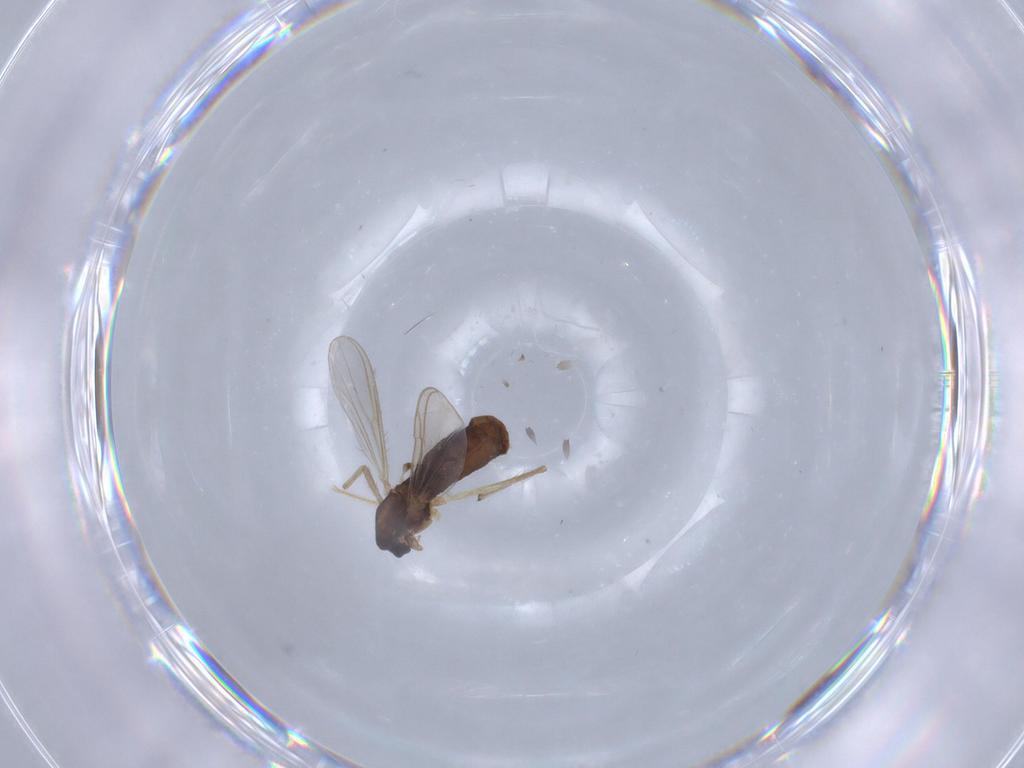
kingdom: Animalia
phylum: Arthropoda
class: Insecta
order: Diptera
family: Chironomidae
